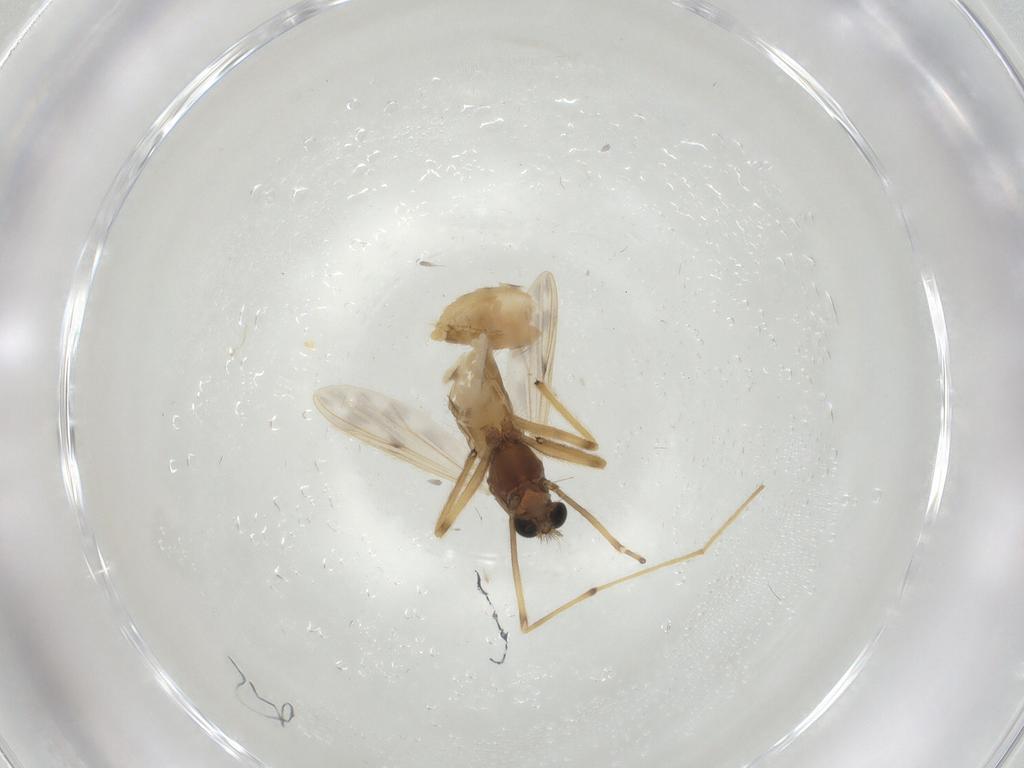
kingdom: Animalia
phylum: Arthropoda
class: Insecta
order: Diptera
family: Chironomidae
